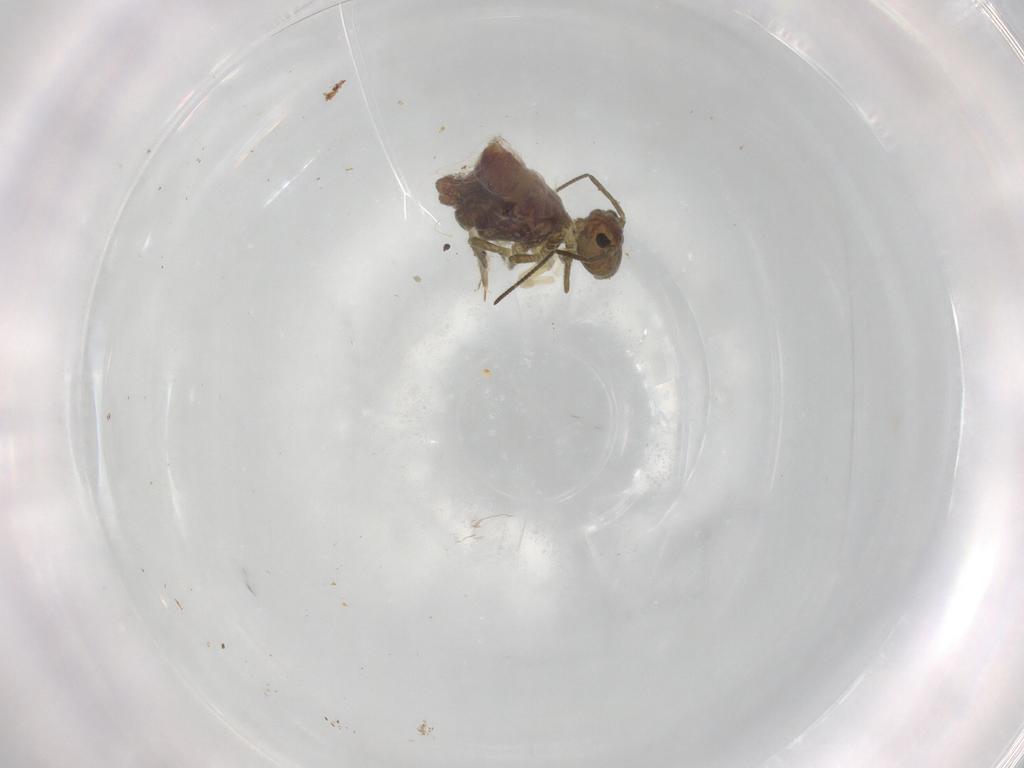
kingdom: Animalia
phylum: Arthropoda
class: Collembola
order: Symphypleona
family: Sminthuridae
